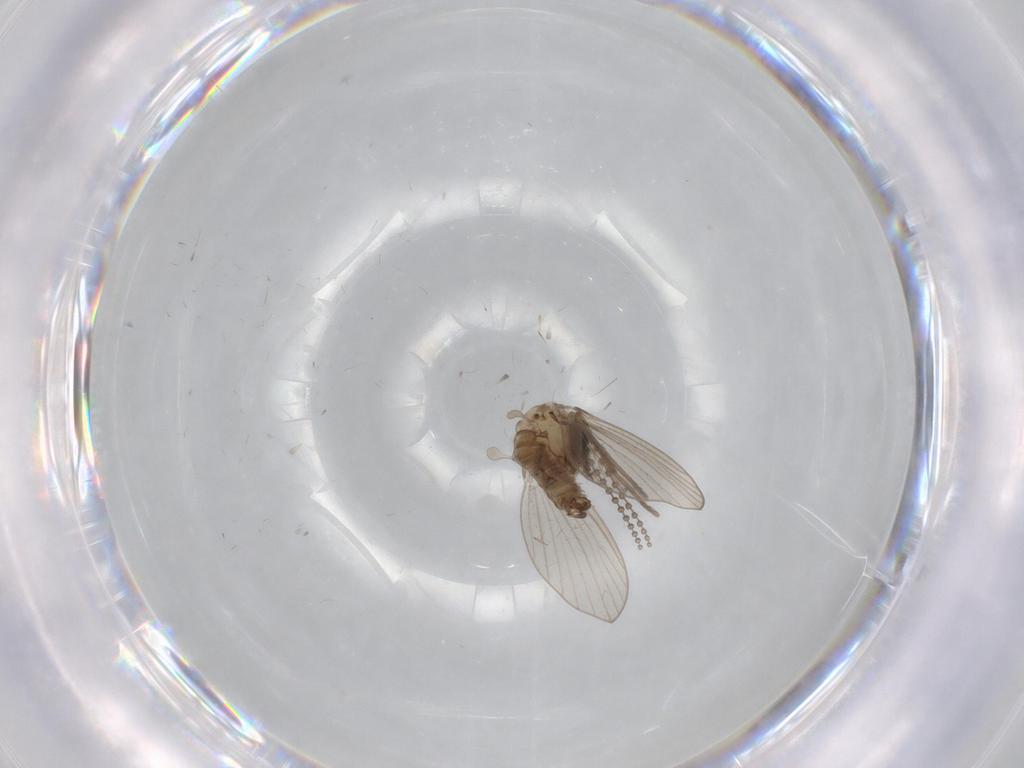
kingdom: Animalia
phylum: Arthropoda
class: Insecta
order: Diptera
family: Psychodidae
